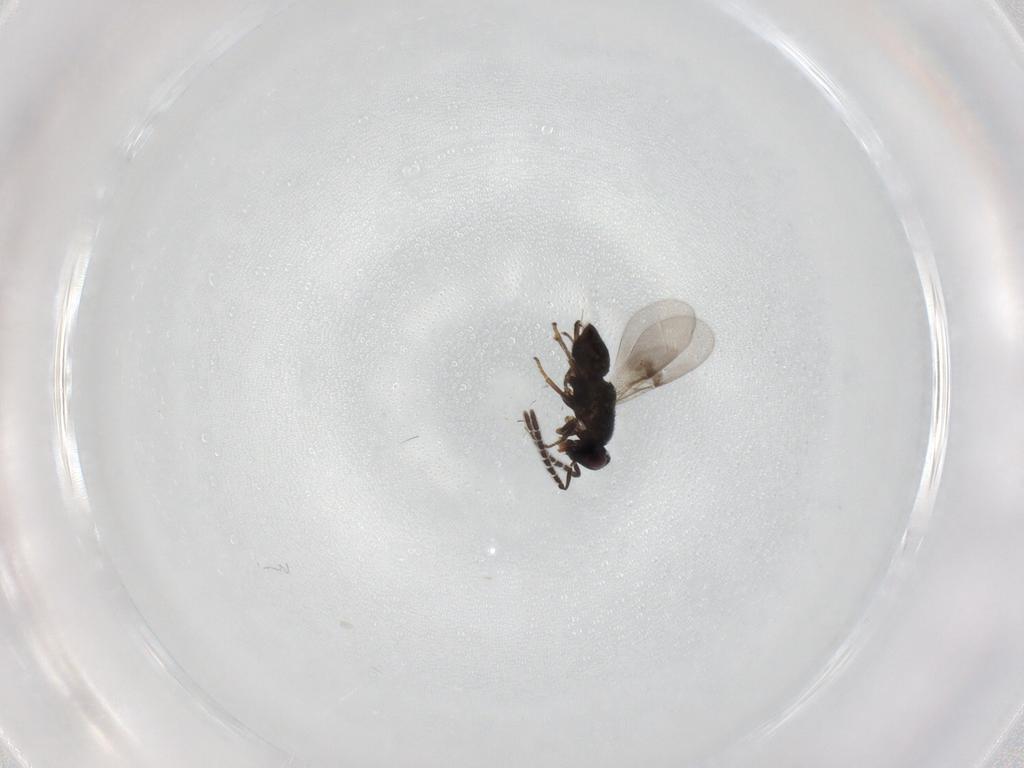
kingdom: Animalia
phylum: Arthropoda
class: Insecta
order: Hymenoptera
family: Encyrtidae
